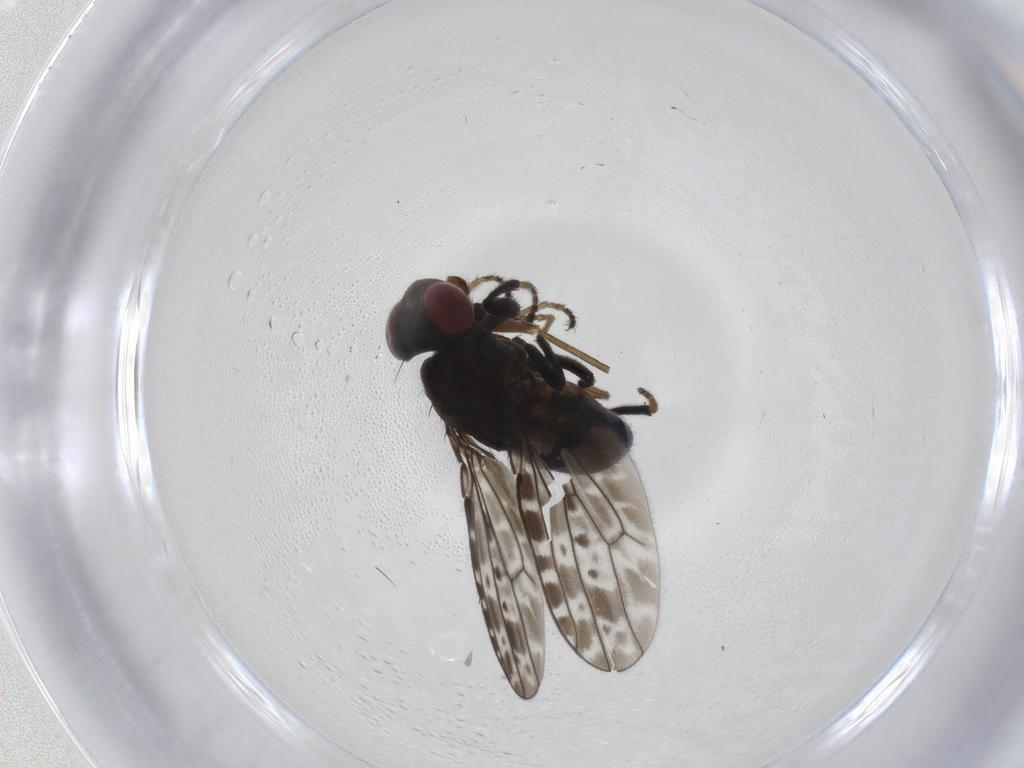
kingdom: Animalia
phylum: Arthropoda
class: Insecta
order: Diptera
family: Ephydridae
